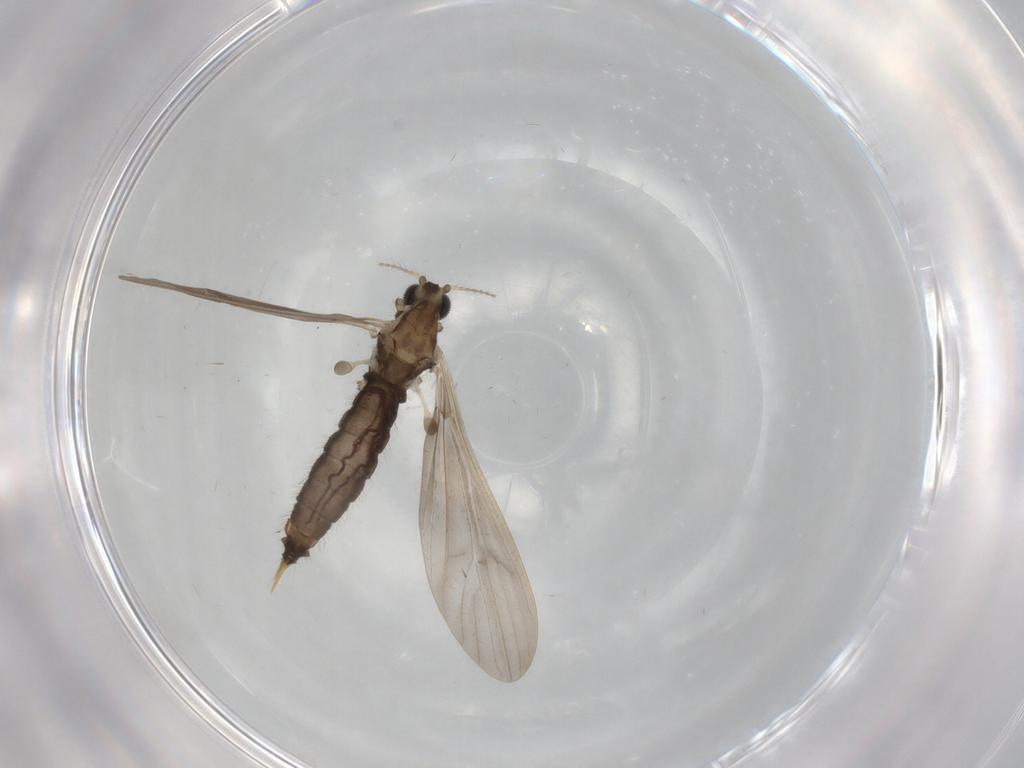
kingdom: Animalia
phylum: Arthropoda
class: Insecta
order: Diptera
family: Limoniidae
